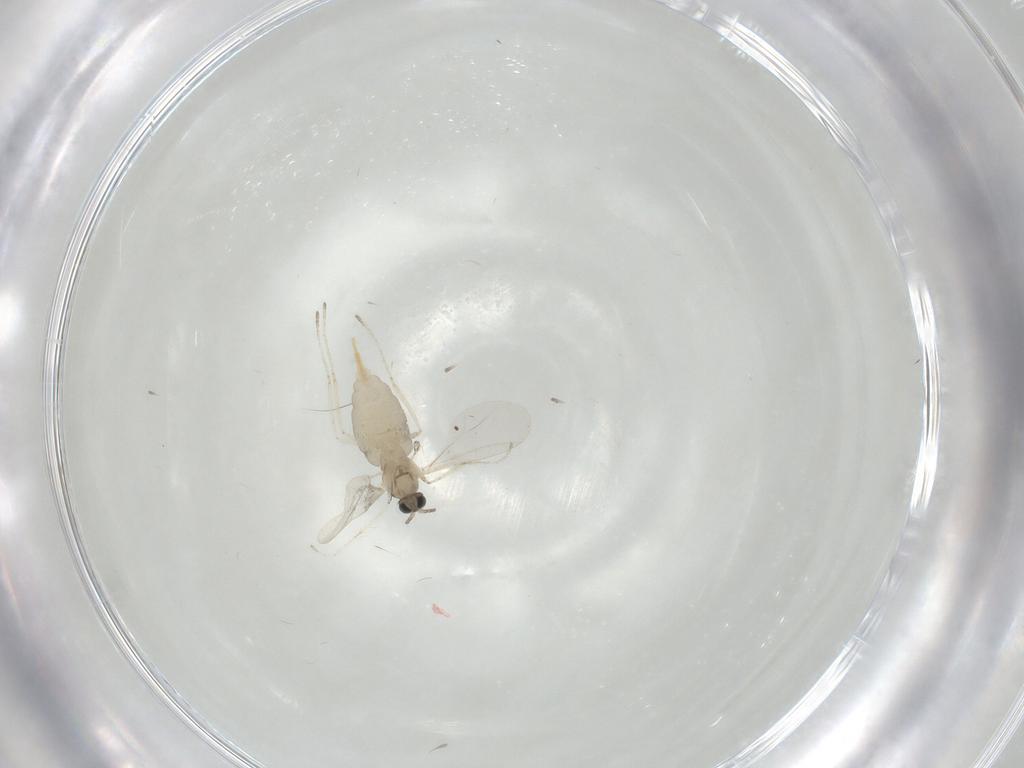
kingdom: Animalia
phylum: Arthropoda
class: Insecta
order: Diptera
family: Cecidomyiidae
